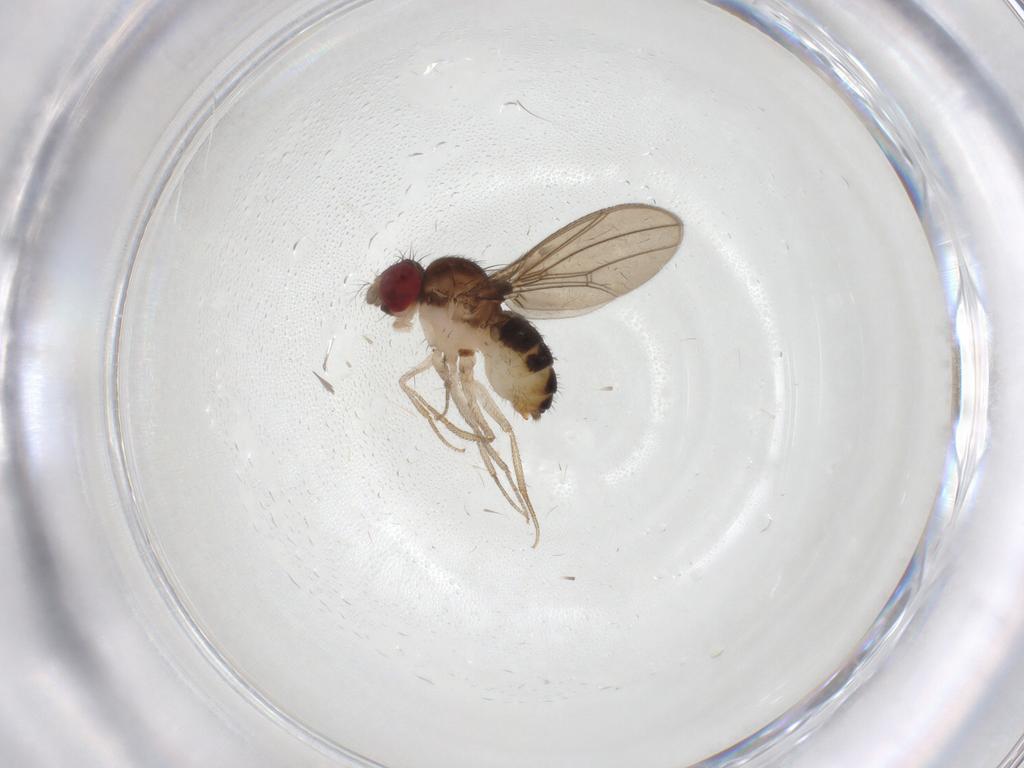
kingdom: Animalia
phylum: Arthropoda
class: Insecta
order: Diptera
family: Drosophilidae
